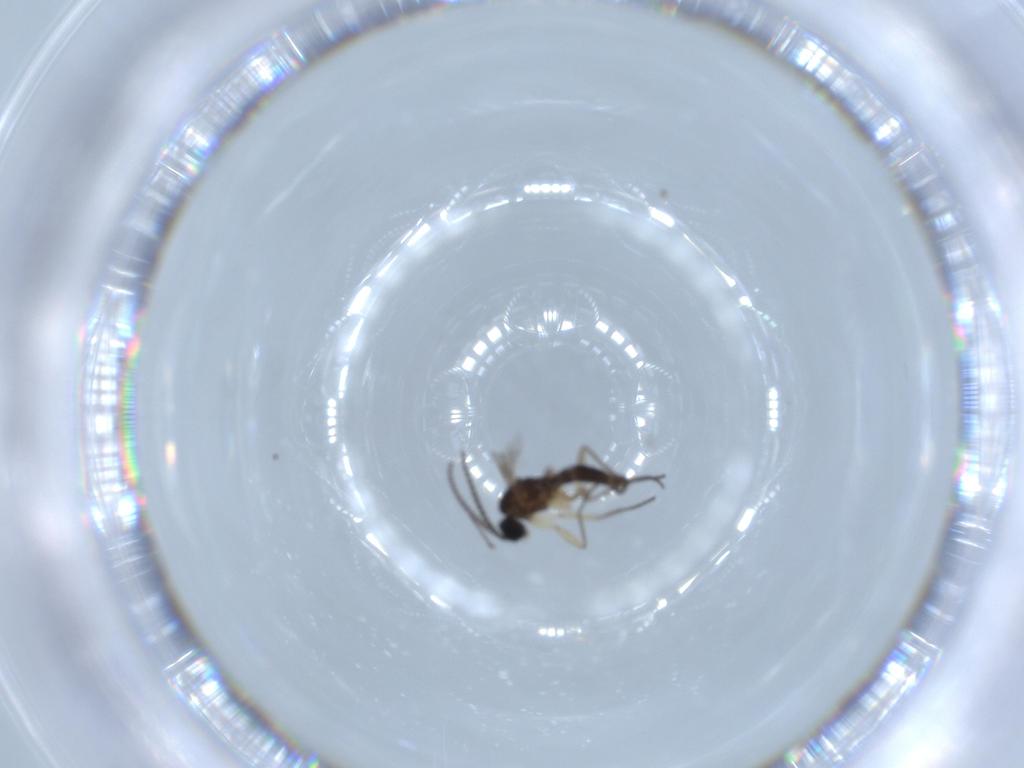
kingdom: Animalia
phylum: Arthropoda
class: Insecta
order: Diptera
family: Sciaridae
